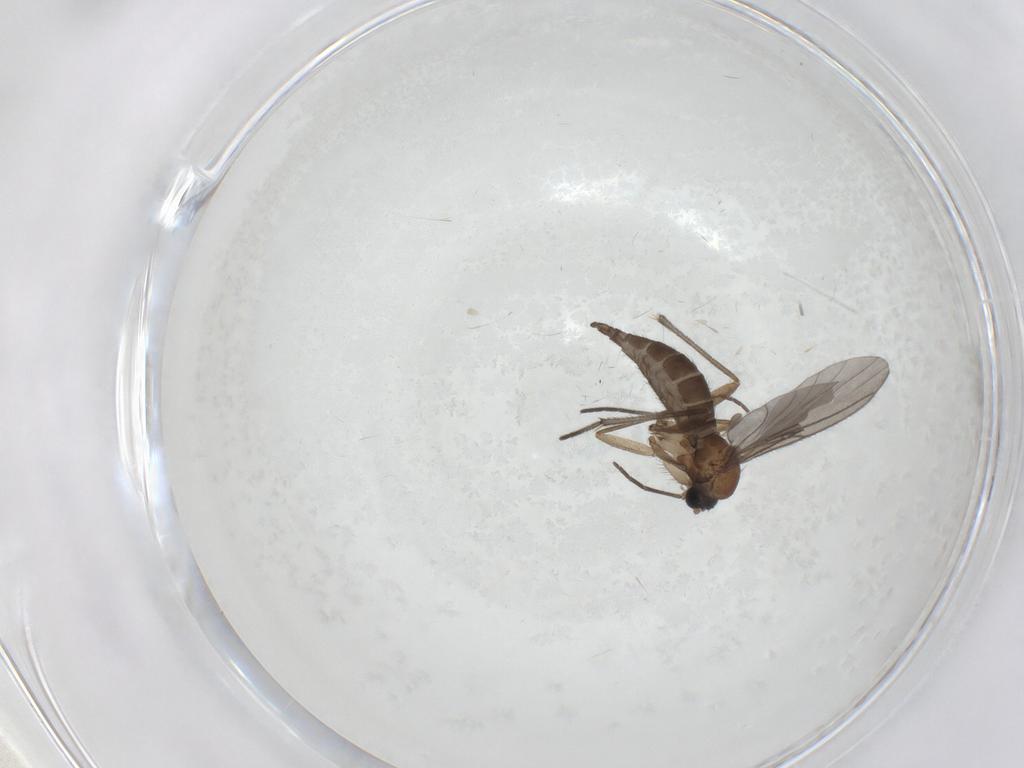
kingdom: Animalia
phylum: Arthropoda
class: Insecta
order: Diptera
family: Sciaridae
